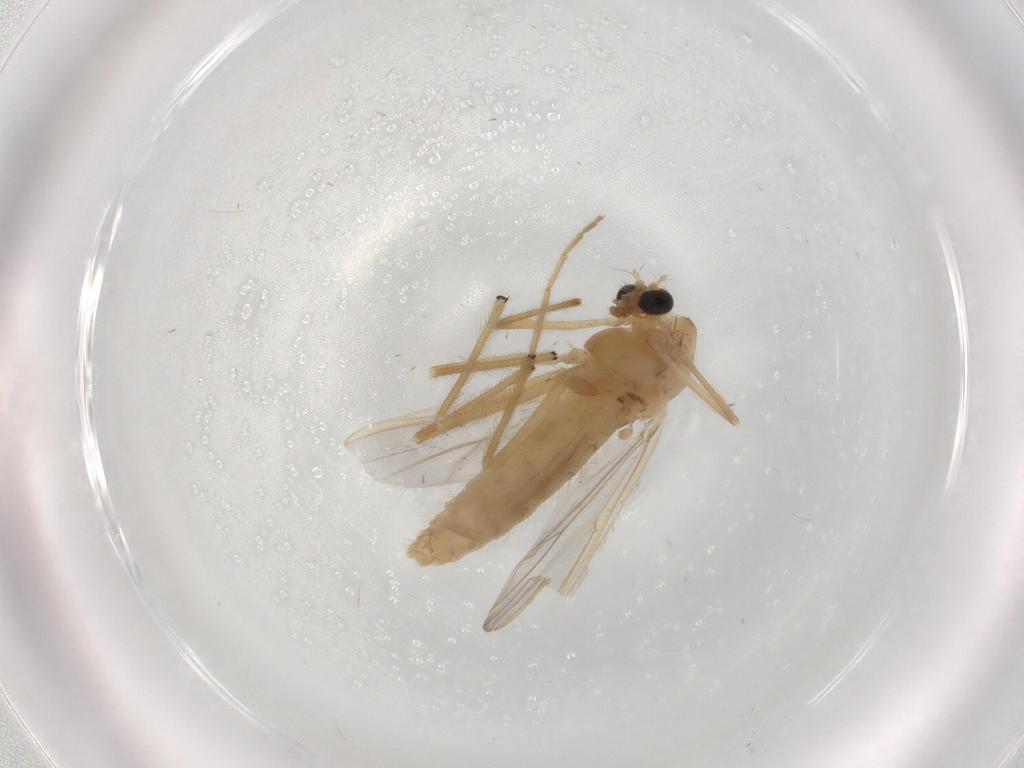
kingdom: Animalia
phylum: Arthropoda
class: Insecta
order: Diptera
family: Chironomidae
